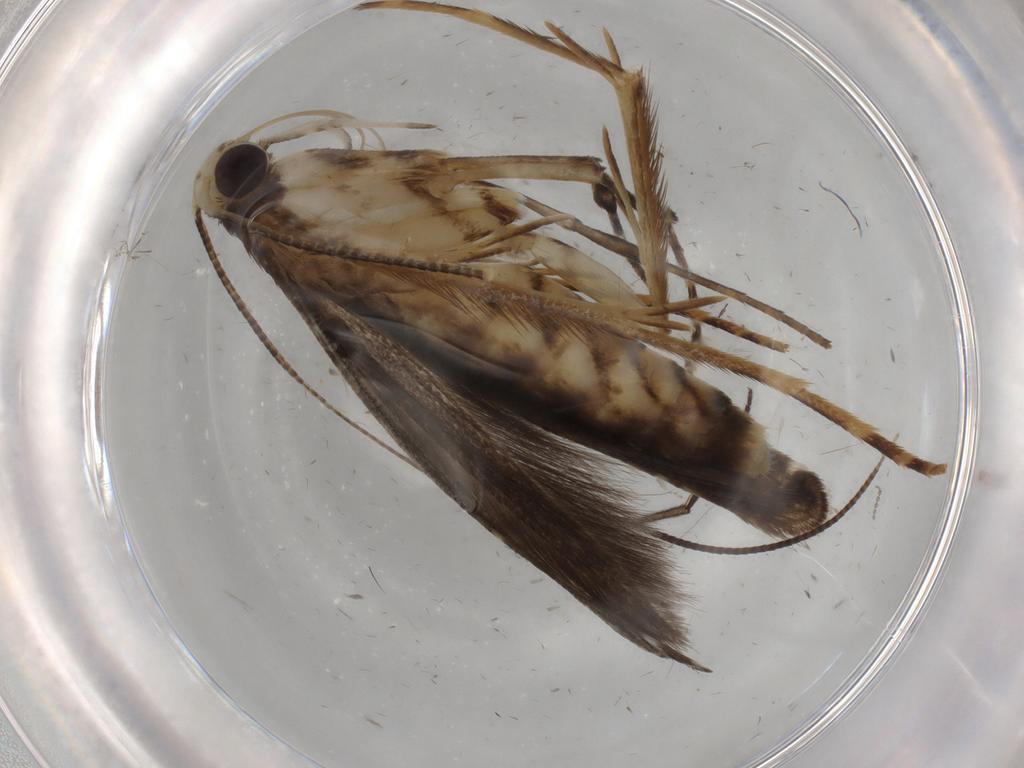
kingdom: Animalia
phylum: Arthropoda
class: Insecta
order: Lepidoptera
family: Gracillariidae
